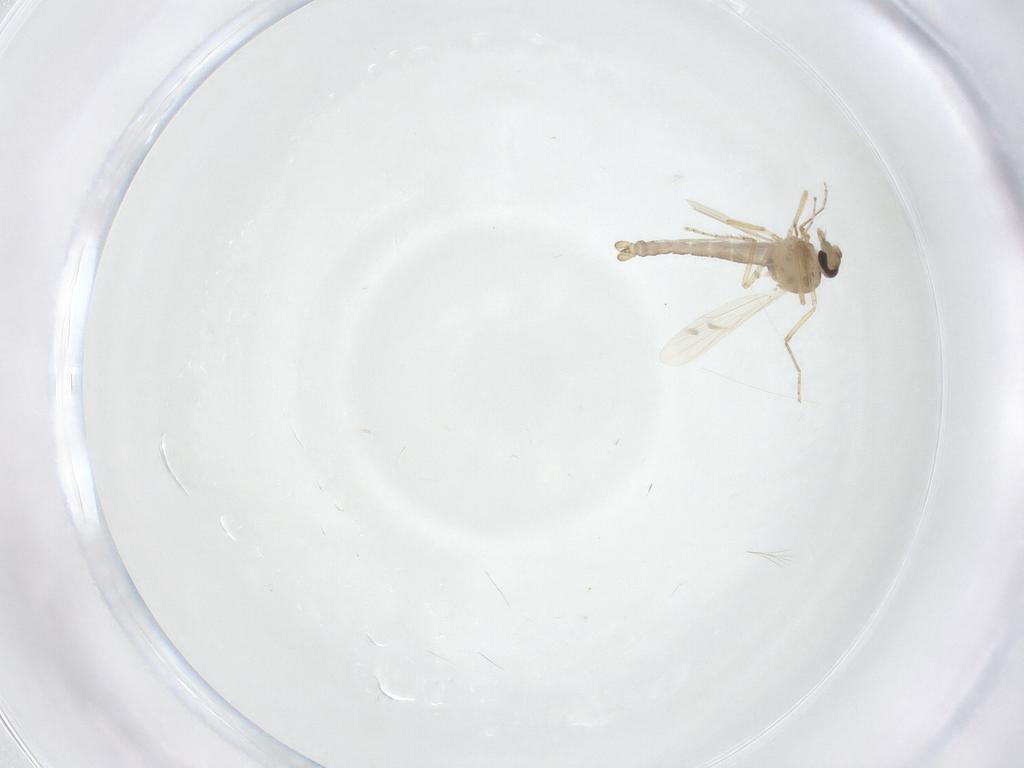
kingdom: Animalia
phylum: Arthropoda
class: Insecta
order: Diptera
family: Ceratopogonidae
